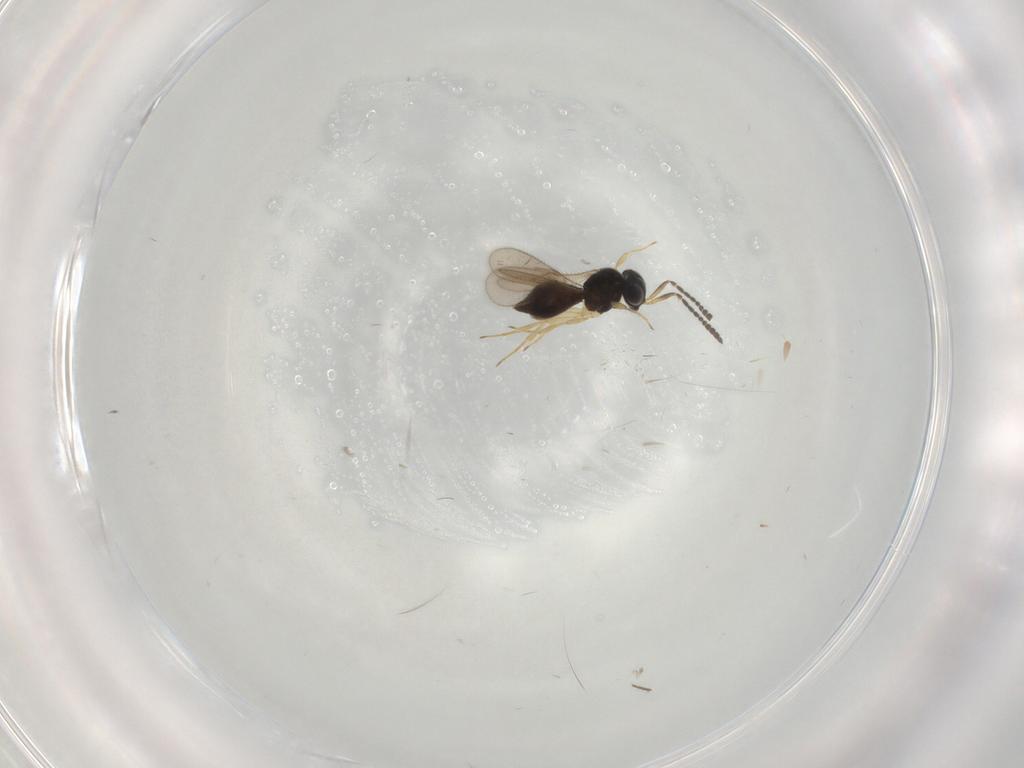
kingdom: Animalia
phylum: Arthropoda
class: Insecta
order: Hymenoptera
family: Scelionidae
